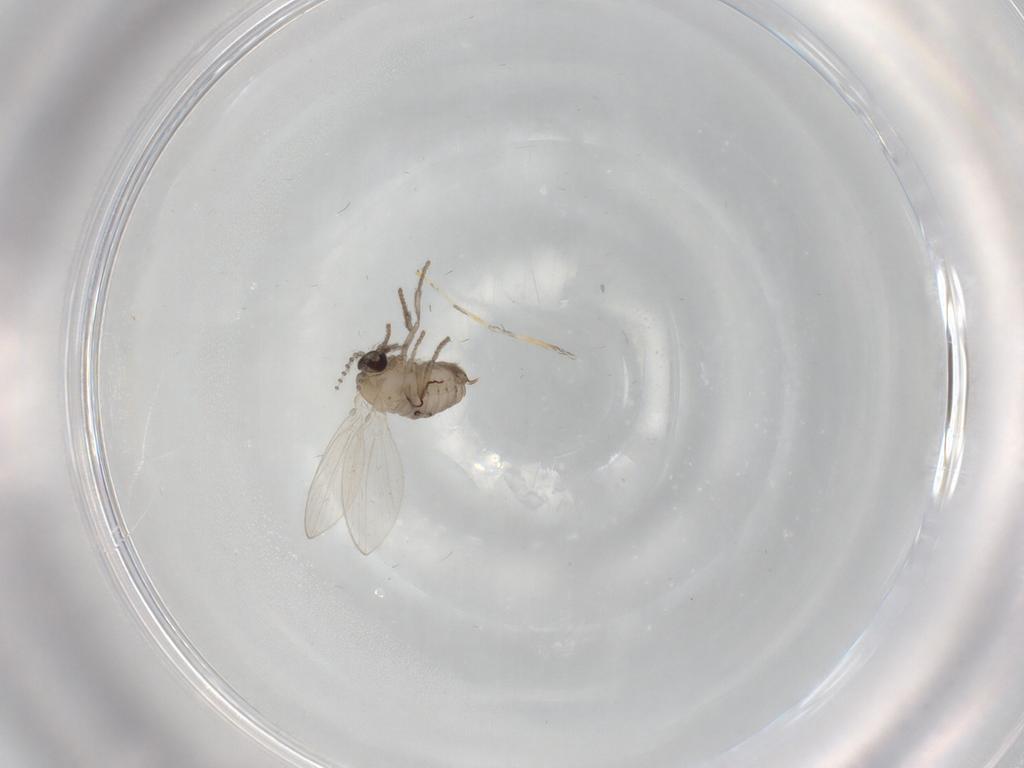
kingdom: Animalia
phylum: Arthropoda
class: Insecta
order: Diptera
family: Psychodidae
